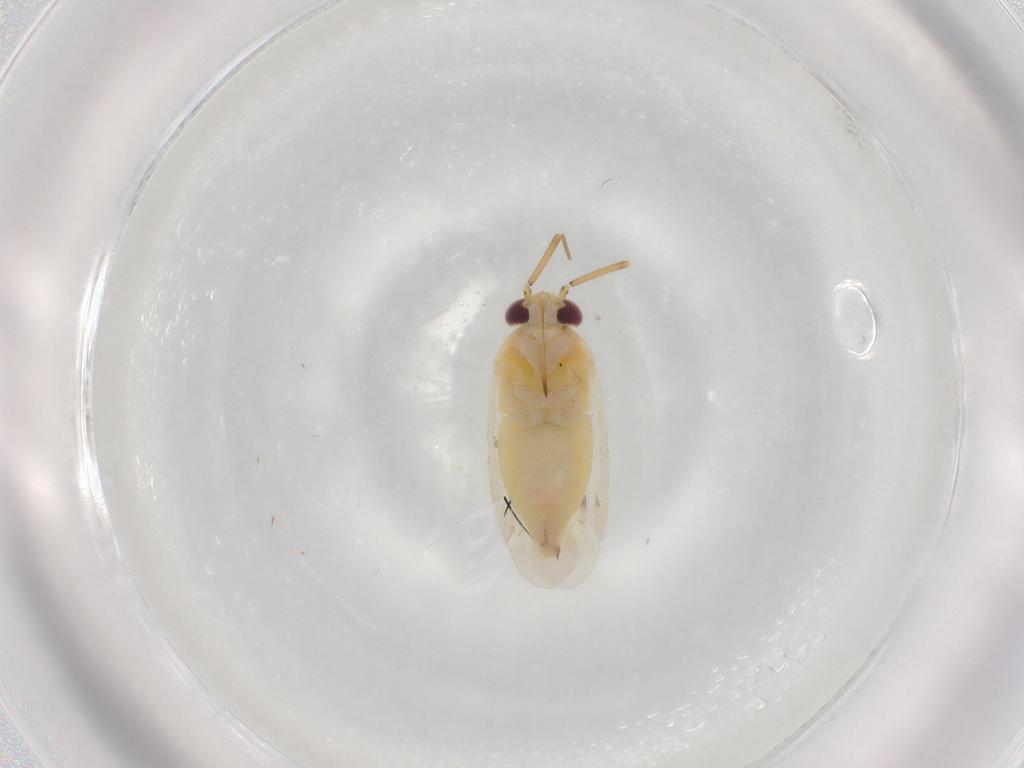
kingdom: Animalia
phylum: Arthropoda
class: Insecta
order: Hemiptera
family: Miridae
